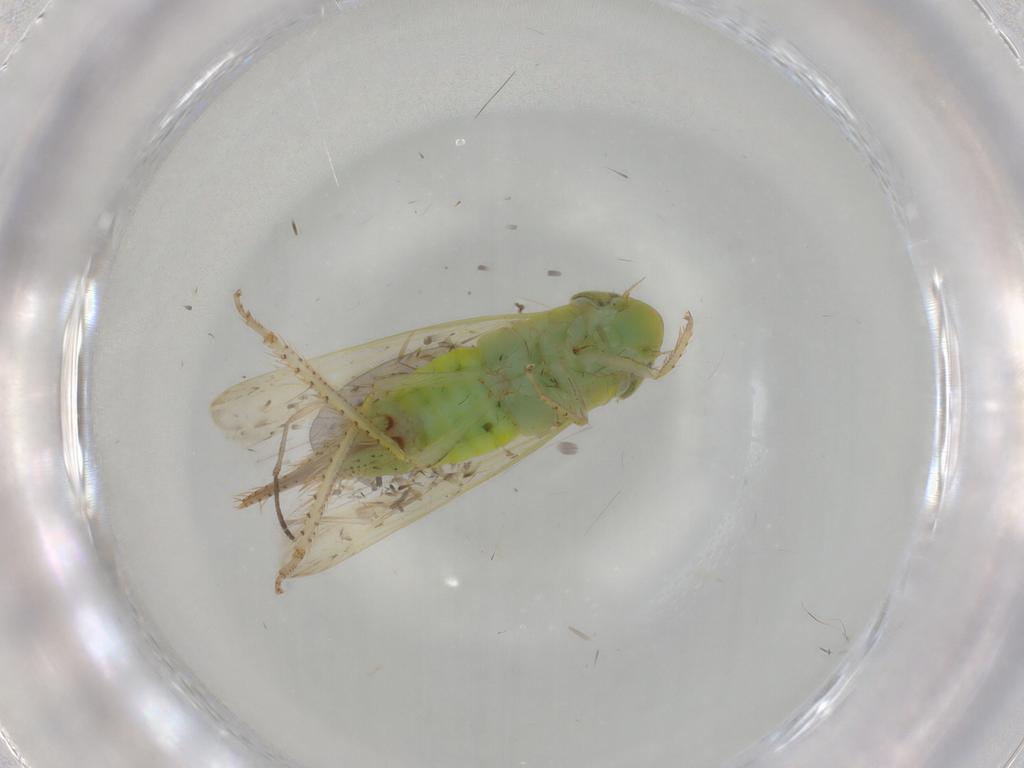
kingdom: Animalia
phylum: Arthropoda
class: Insecta
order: Hemiptera
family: Cicadellidae
